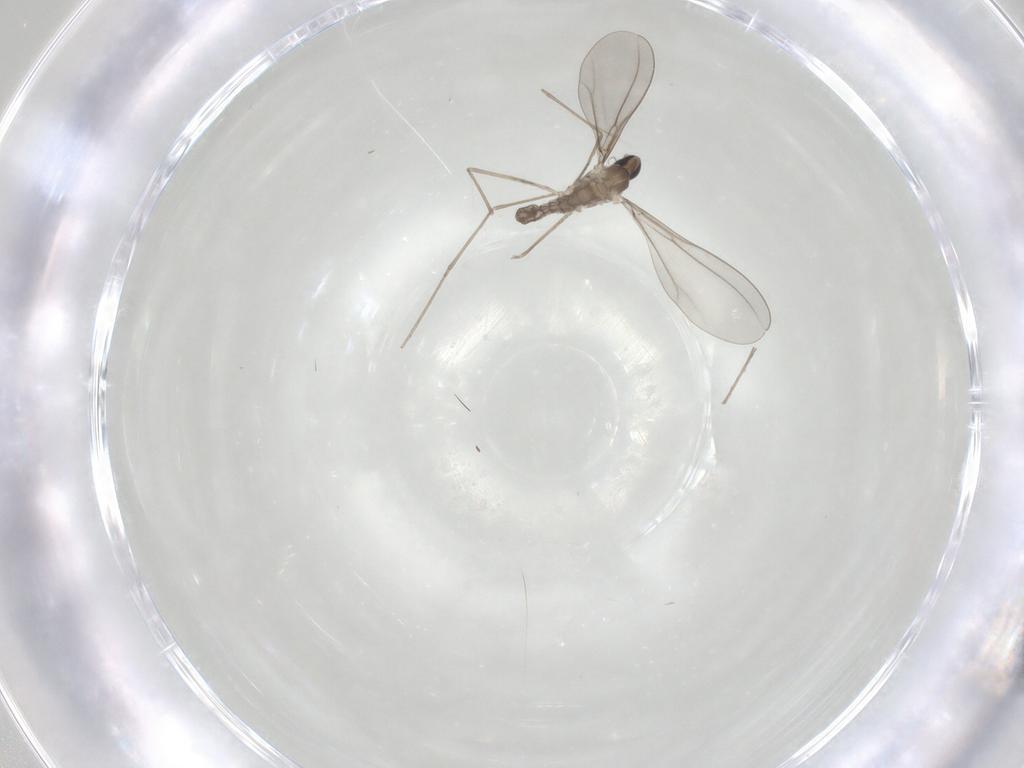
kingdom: Animalia
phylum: Arthropoda
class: Insecta
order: Diptera
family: Cecidomyiidae
